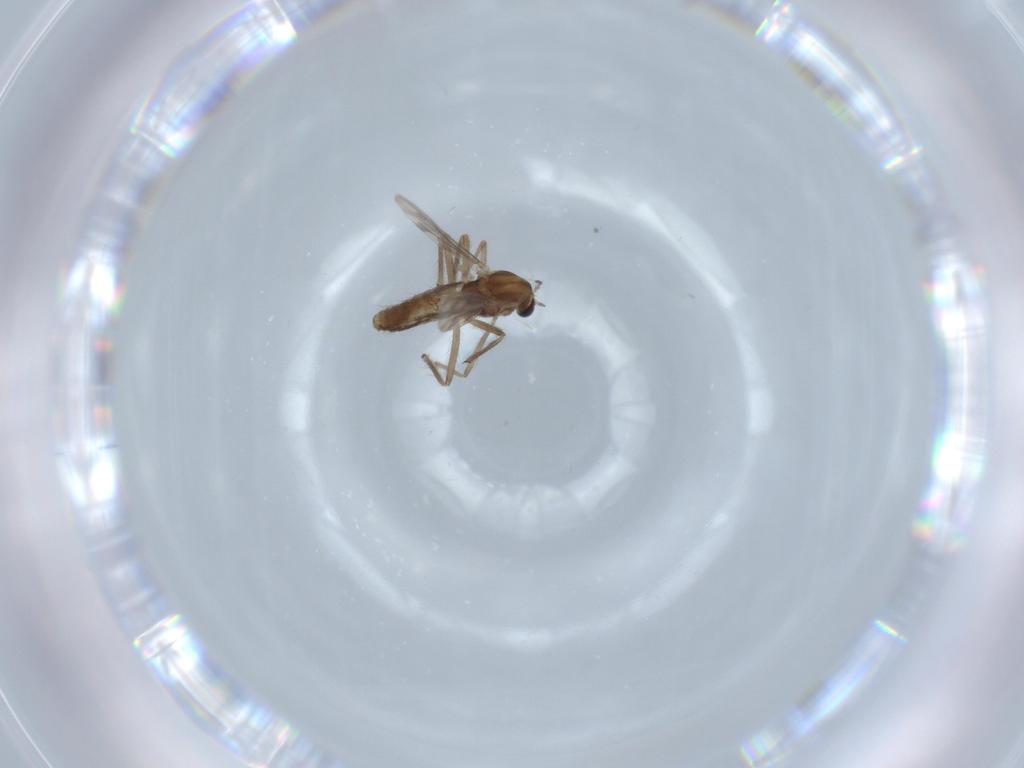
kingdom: Animalia
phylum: Arthropoda
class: Insecta
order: Diptera
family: Chironomidae
